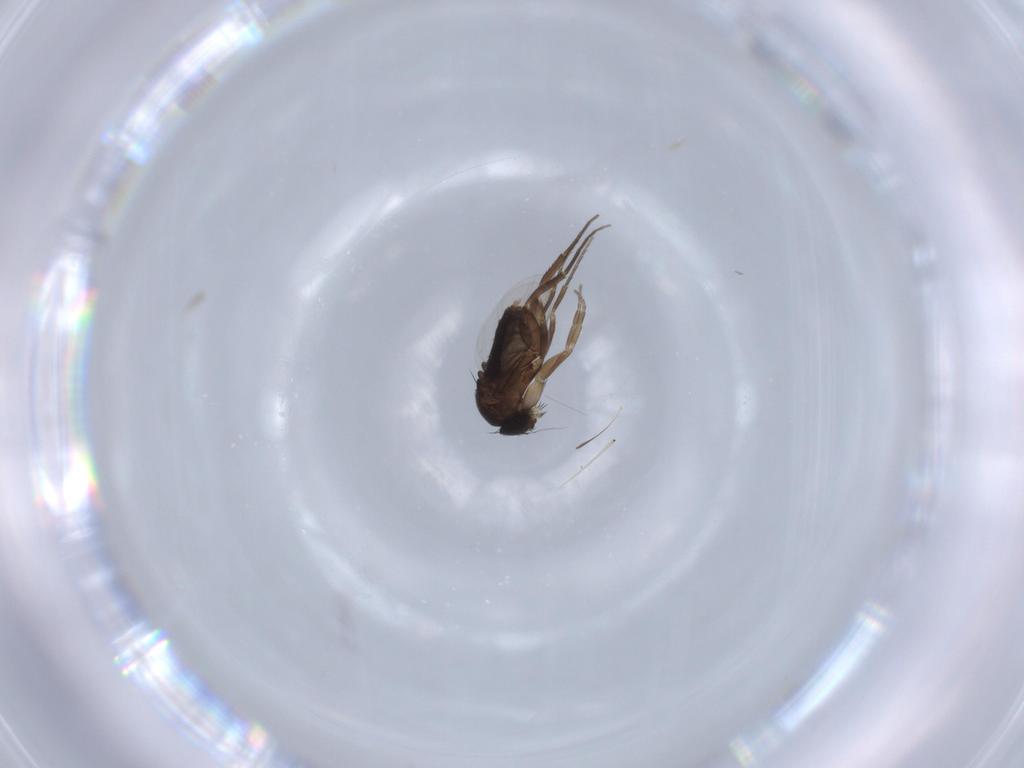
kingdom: Animalia
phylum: Arthropoda
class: Insecta
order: Diptera
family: Phoridae
